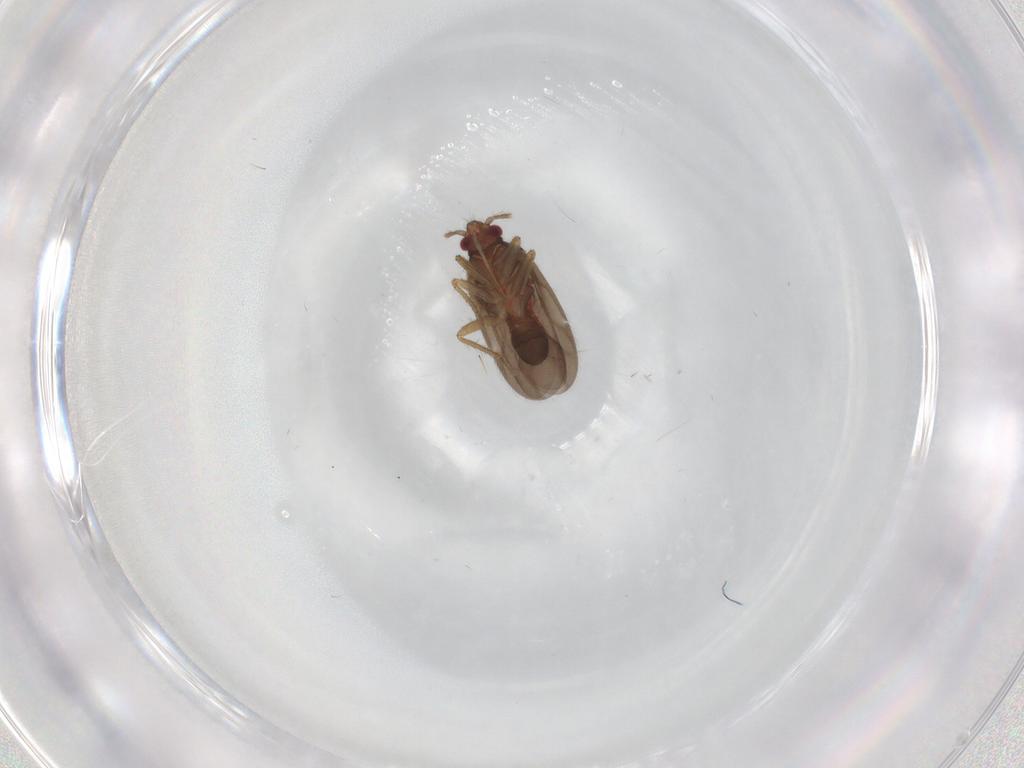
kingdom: Animalia
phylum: Arthropoda
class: Insecta
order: Hemiptera
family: Ceratocombidae
